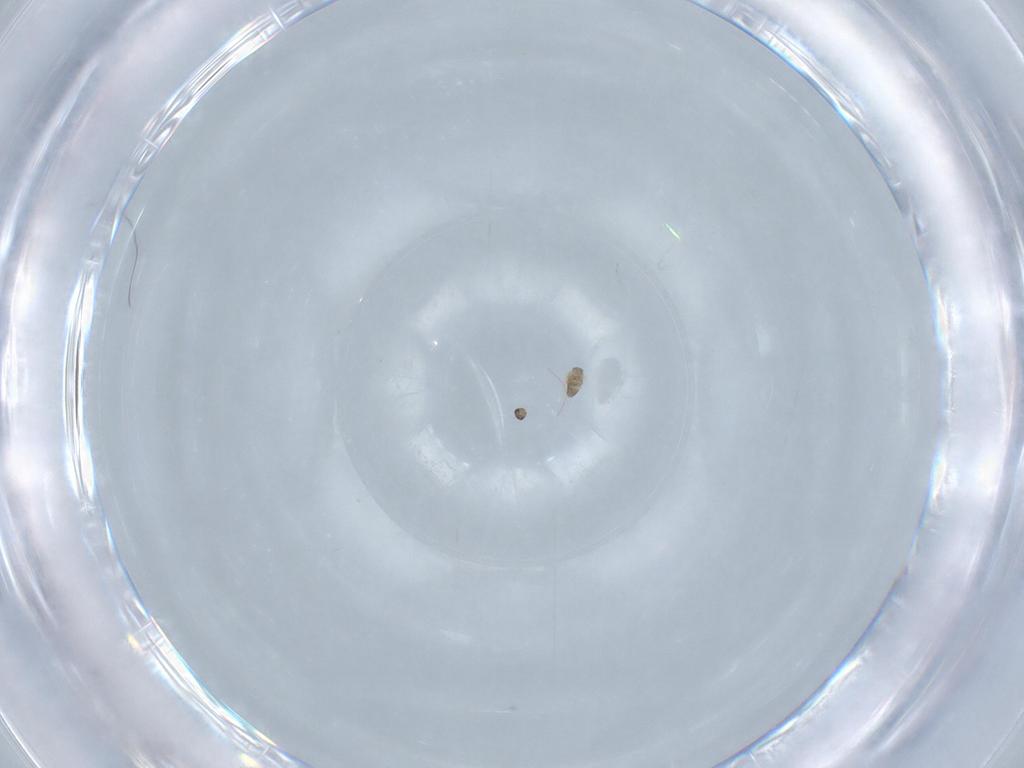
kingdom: Animalia
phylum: Arthropoda
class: Insecta
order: Hymenoptera
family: Mymaridae
